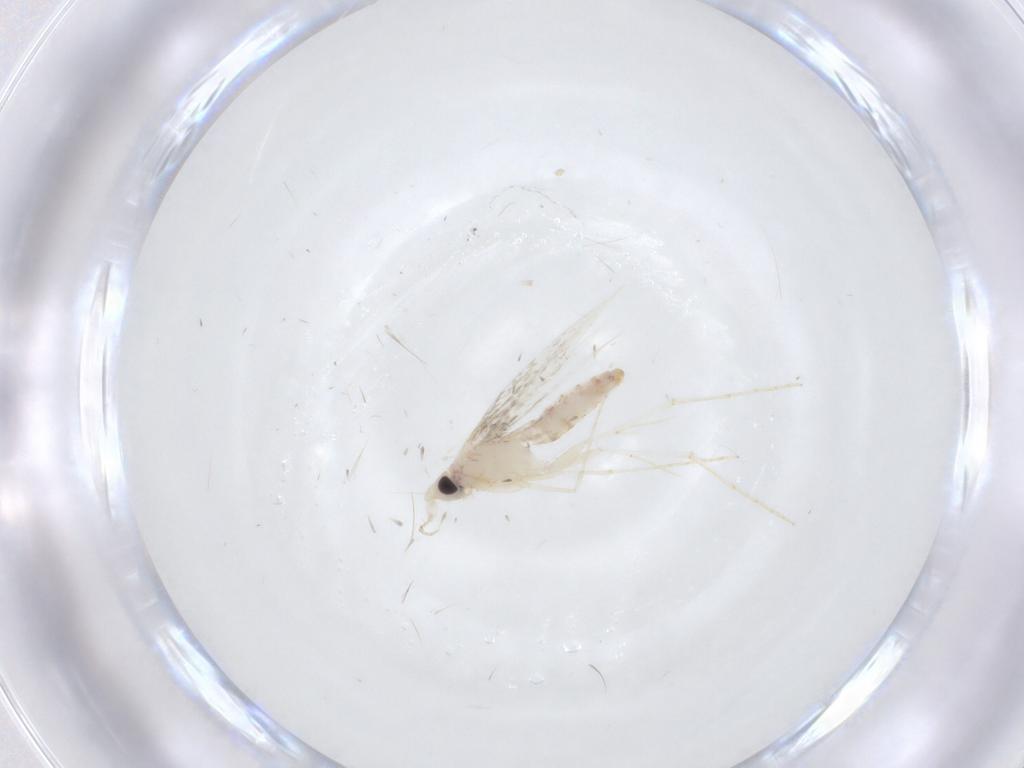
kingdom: Animalia
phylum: Arthropoda
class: Insecta
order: Lepidoptera
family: Tineidae
